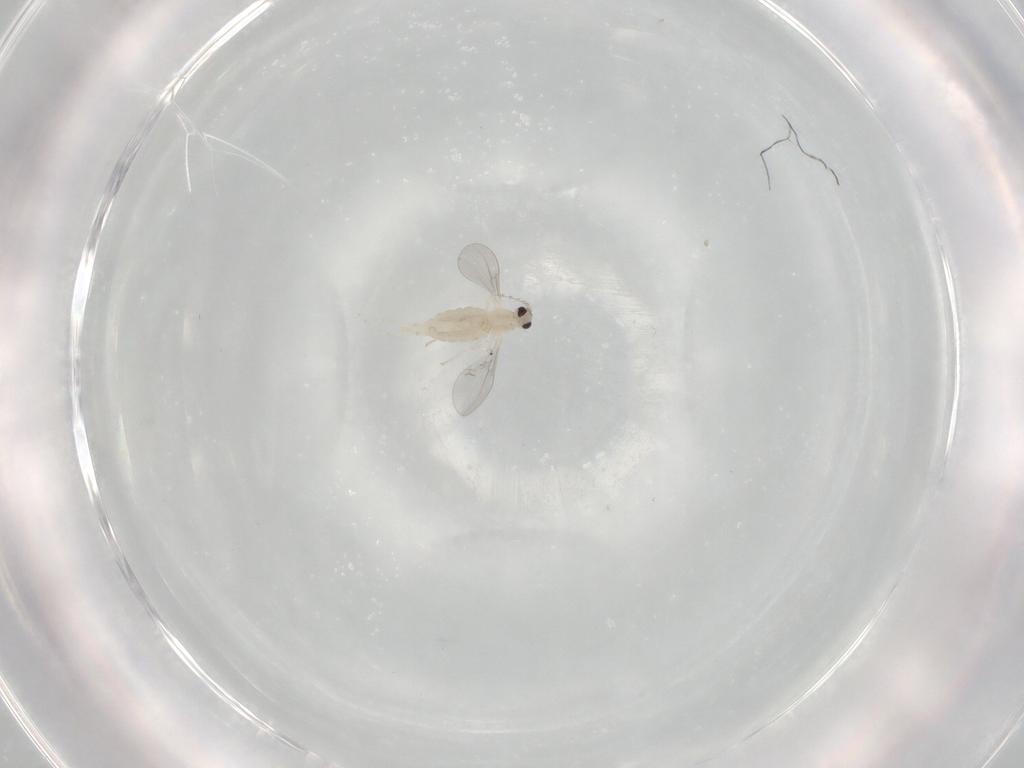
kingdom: Animalia
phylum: Arthropoda
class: Insecta
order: Diptera
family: Cecidomyiidae
